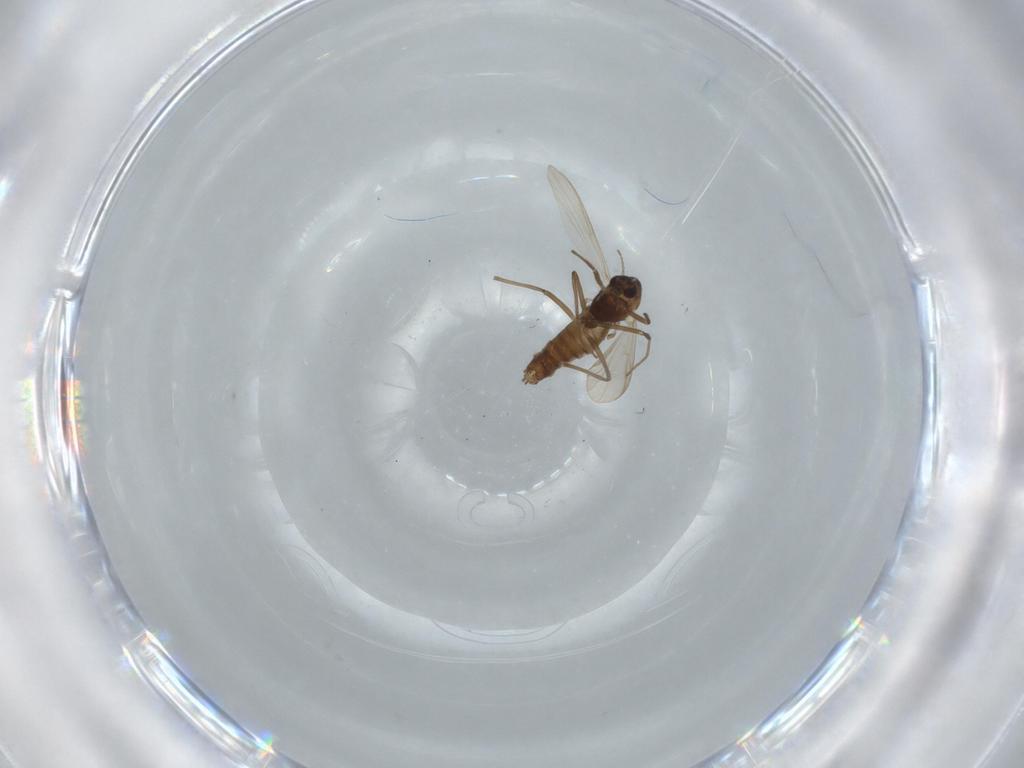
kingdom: Animalia
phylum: Arthropoda
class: Insecta
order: Diptera
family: Chironomidae
